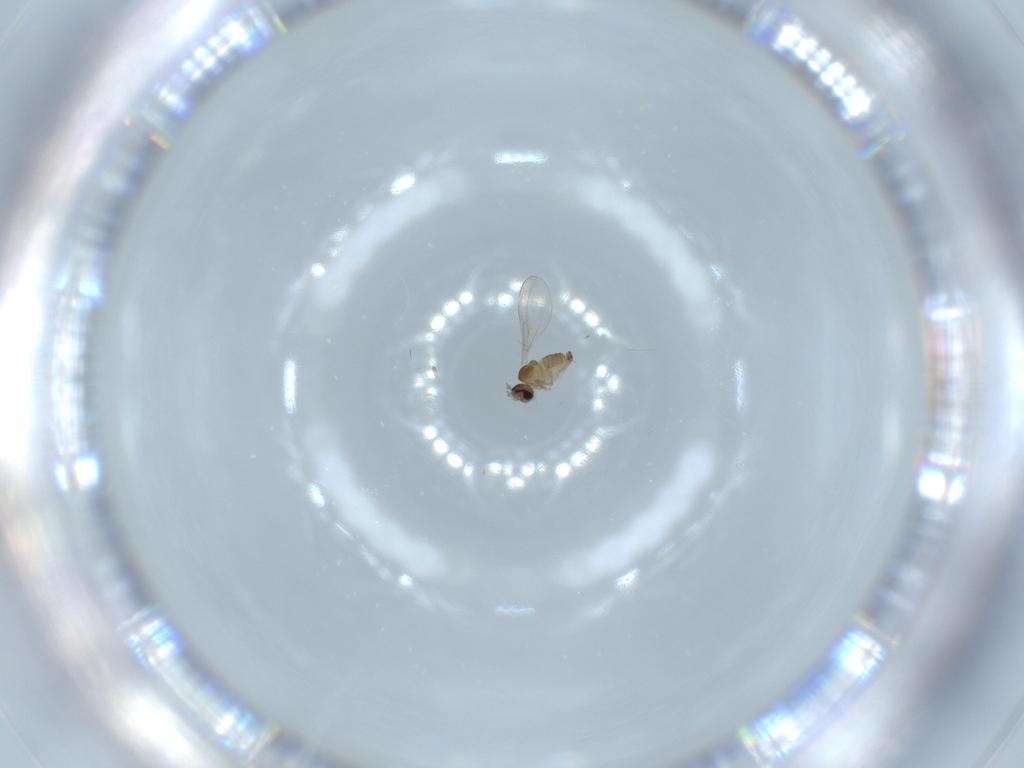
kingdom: Animalia
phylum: Arthropoda
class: Insecta
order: Diptera
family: Cecidomyiidae
